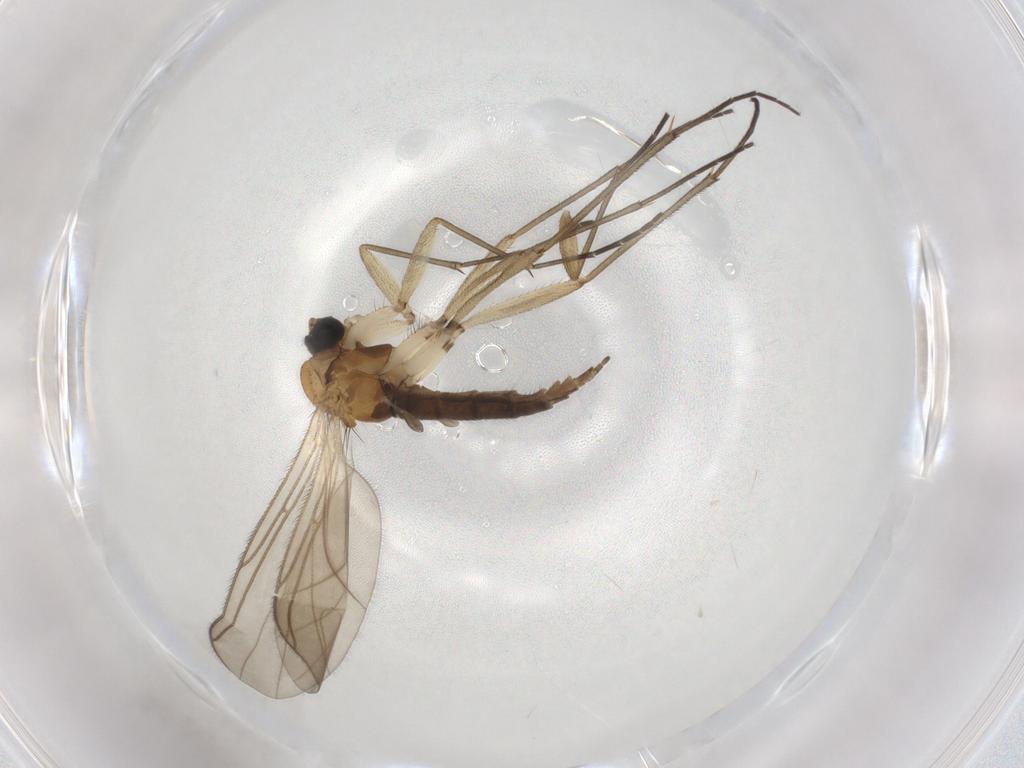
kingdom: Animalia
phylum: Arthropoda
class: Insecta
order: Diptera
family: Sciaridae
